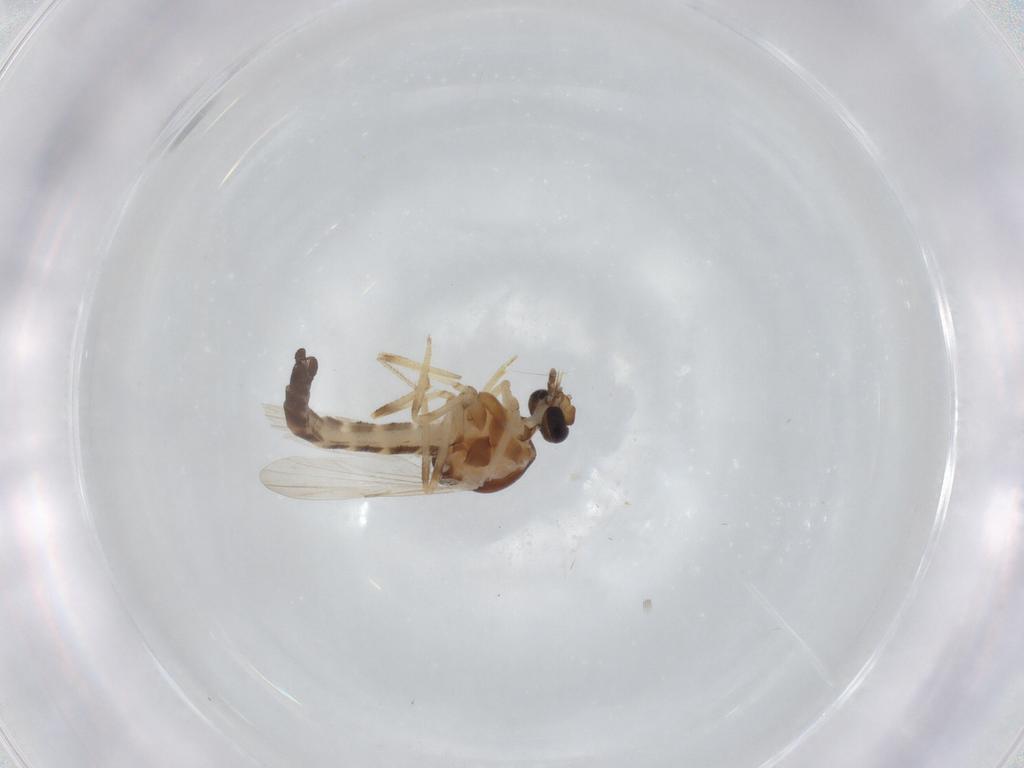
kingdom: Animalia
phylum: Arthropoda
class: Insecta
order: Diptera
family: Ceratopogonidae
